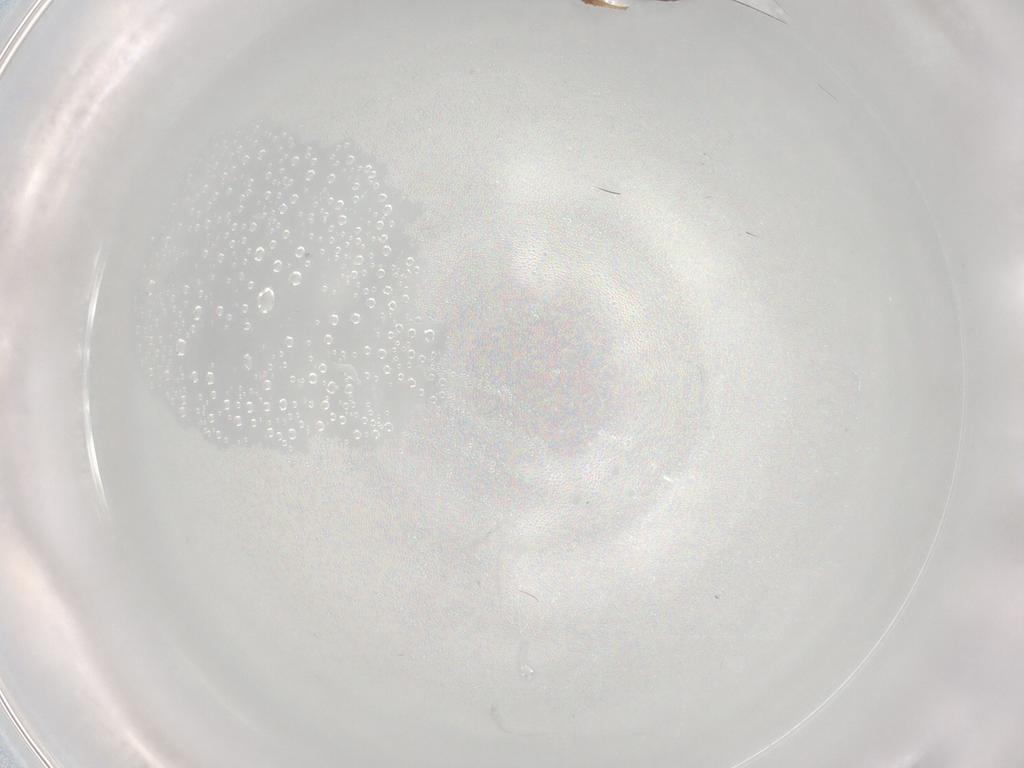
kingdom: Animalia
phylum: Arthropoda
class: Insecta
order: Hymenoptera
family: Braconidae
